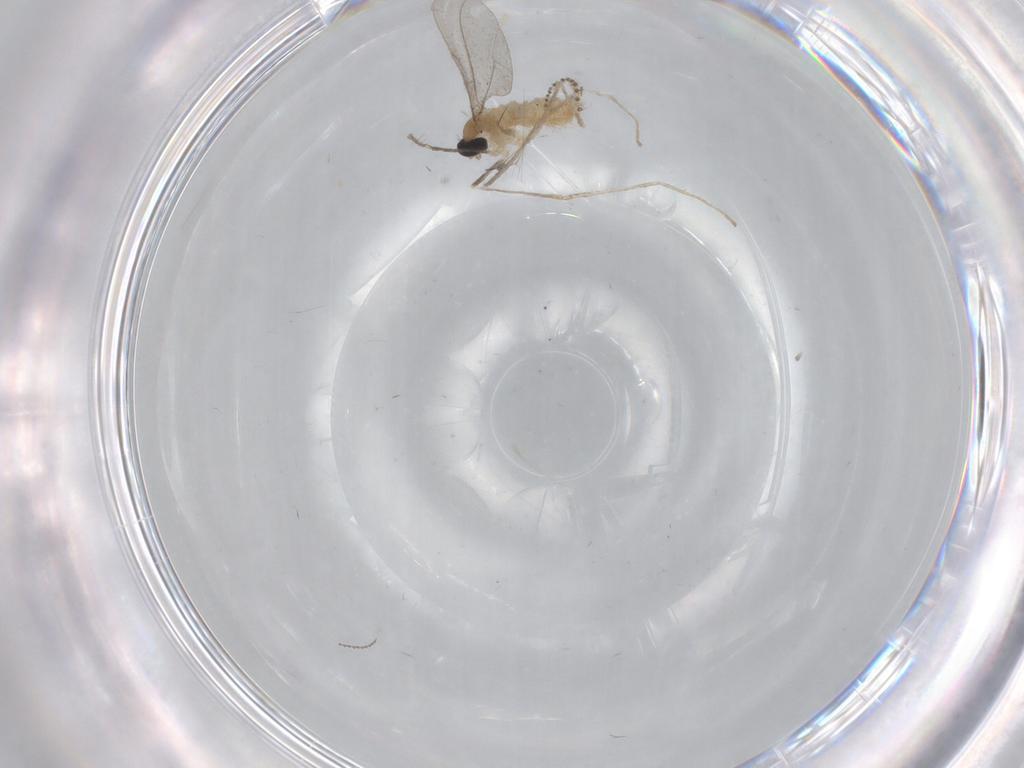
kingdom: Animalia
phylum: Arthropoda
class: Insecta
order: Diptera
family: Cecidomyiidae
